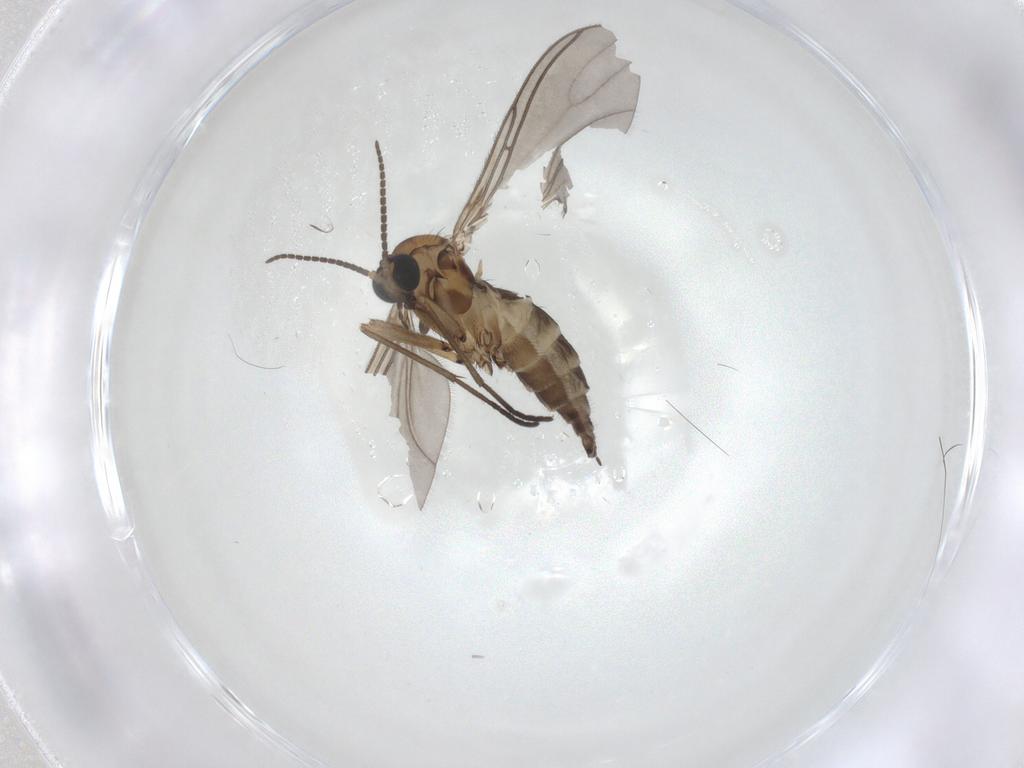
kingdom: Animalia
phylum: Arthropoda
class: Insecta
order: Diptera
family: Sciaridae
